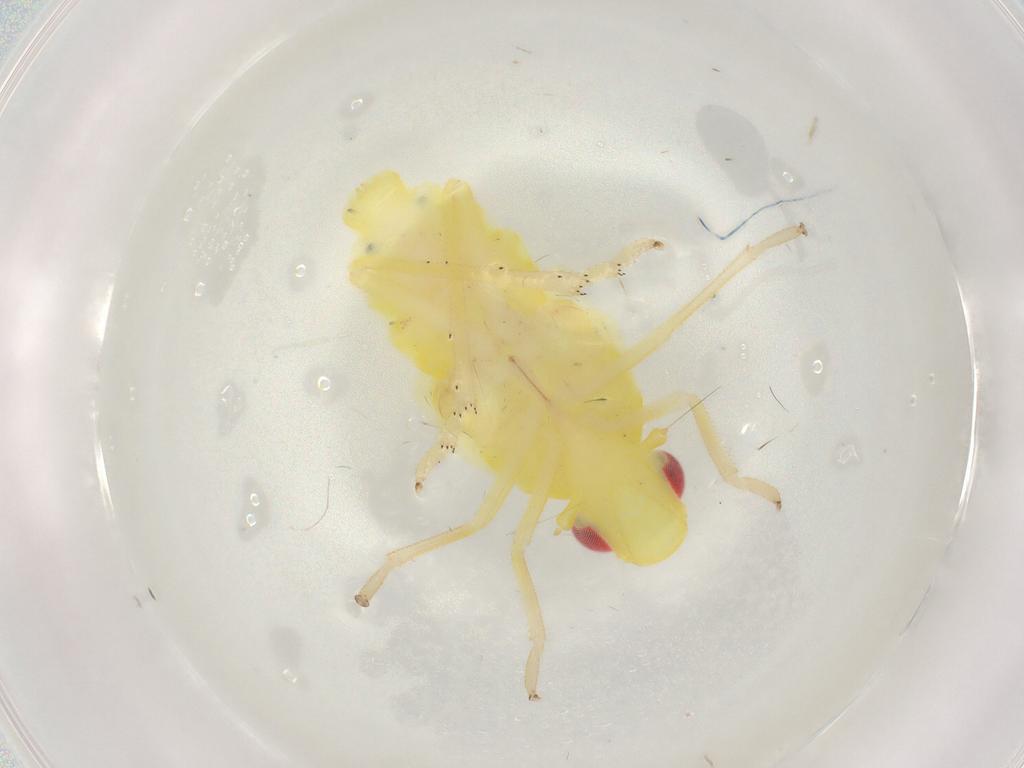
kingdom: Animalia
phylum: Arthropoda
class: Insecta
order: Hemiptera
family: Tropiduchidae
